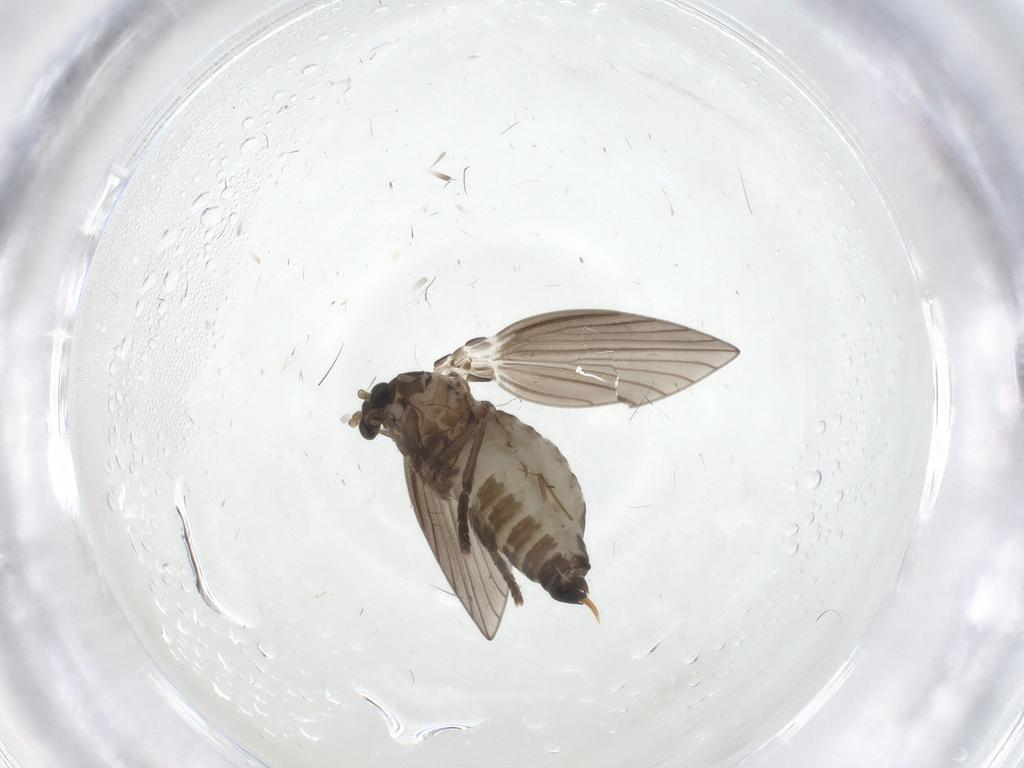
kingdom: Animalia
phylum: Arthropoda
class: Insecta
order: Diptera
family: Psychodidae
